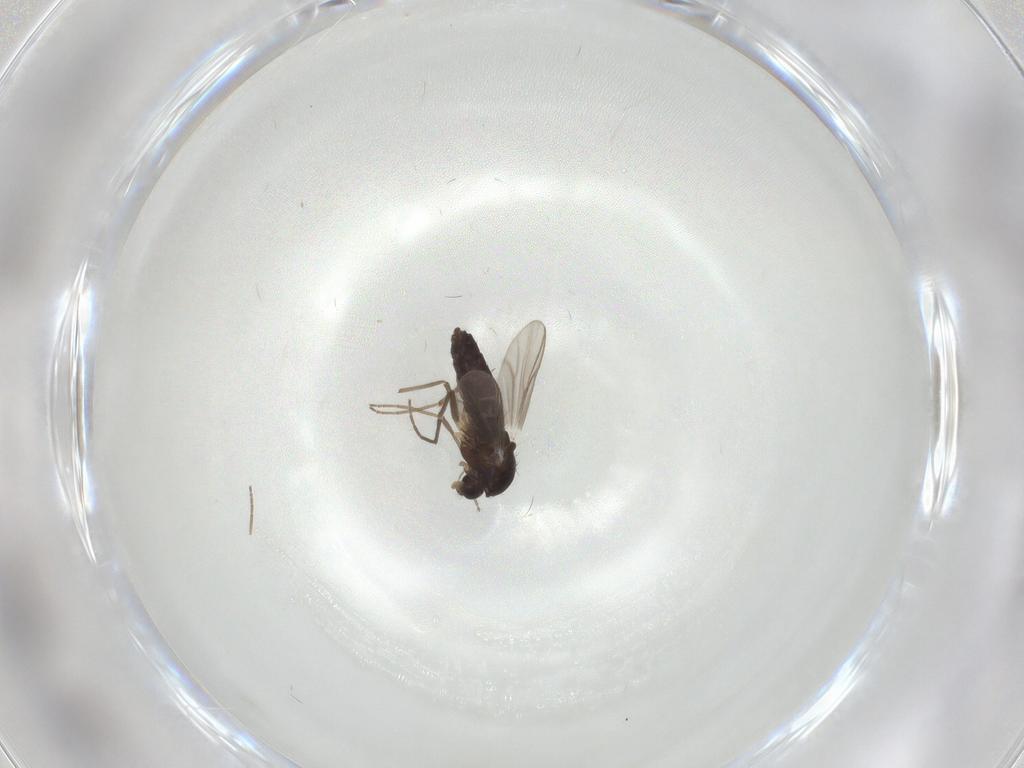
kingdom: Animalia
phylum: Arthropoda
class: Insecta
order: Diptera
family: Chironomidae
